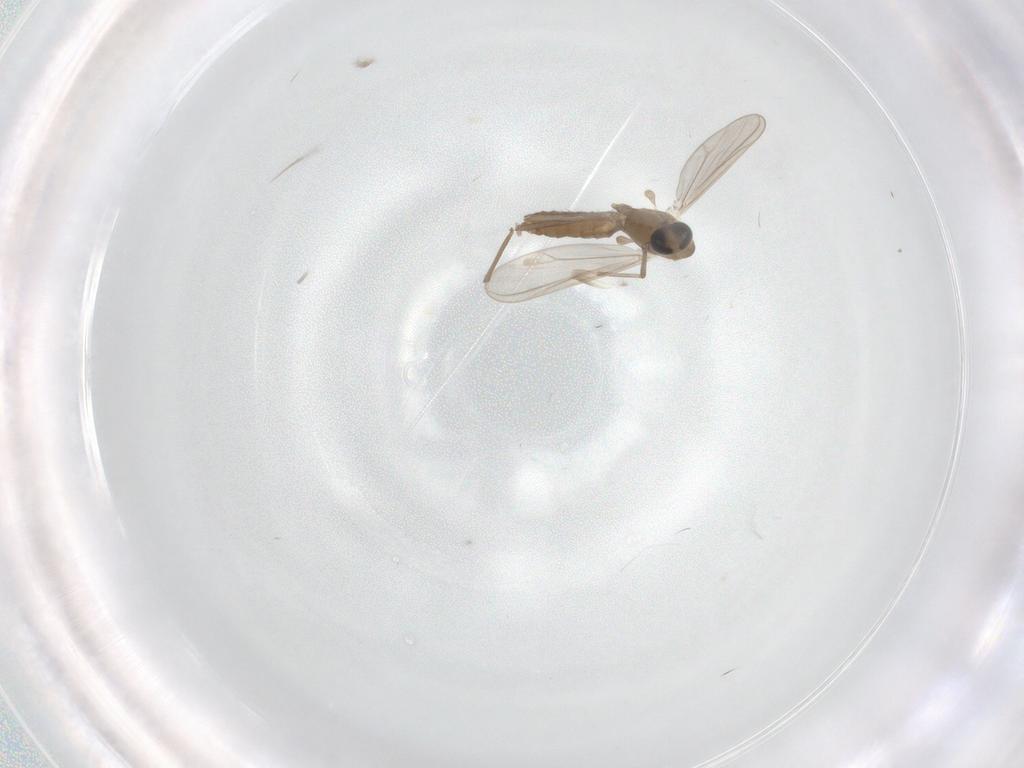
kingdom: Animalia
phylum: Arthropoda
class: Insecta
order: Diptera
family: Chironomidae
